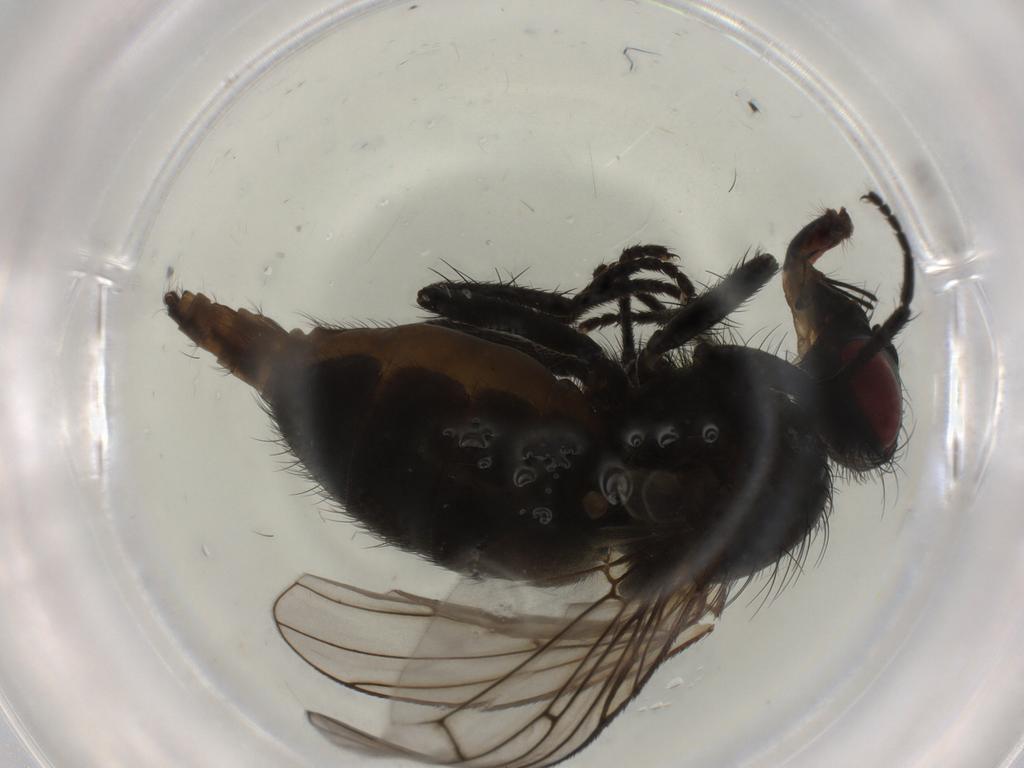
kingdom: Animalia
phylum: Arthropoda
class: Insecta
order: Diptera
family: Muscidae
